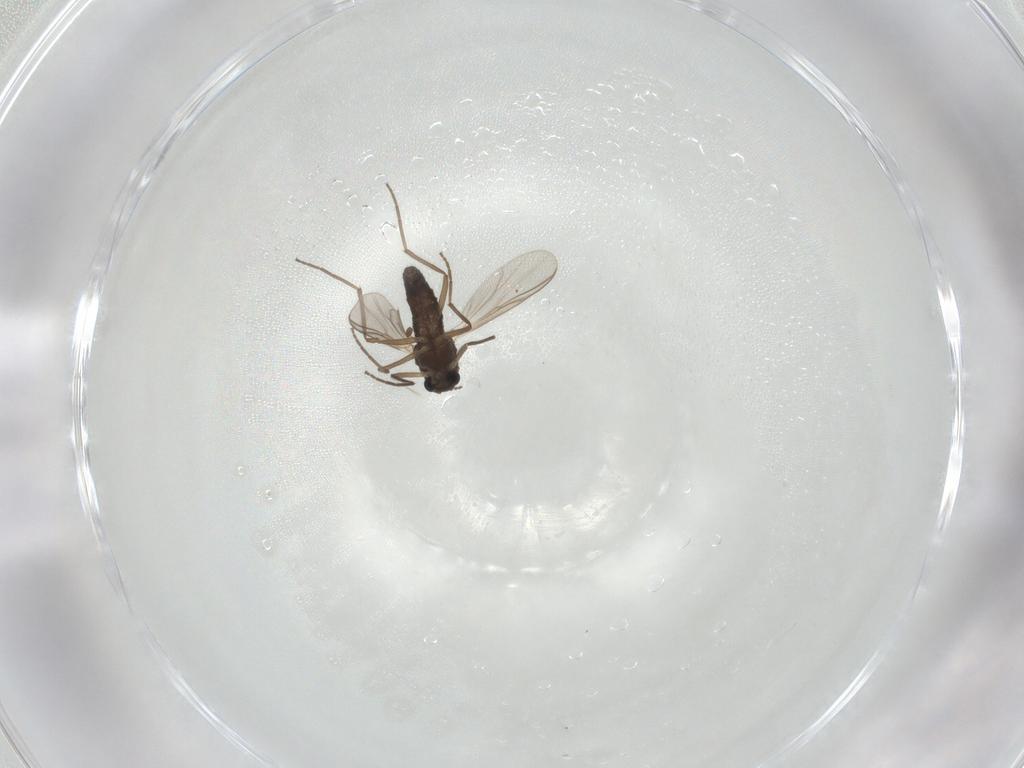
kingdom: Animalia
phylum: Arthropoda
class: Insecta
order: Diptera
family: Chironomidae
